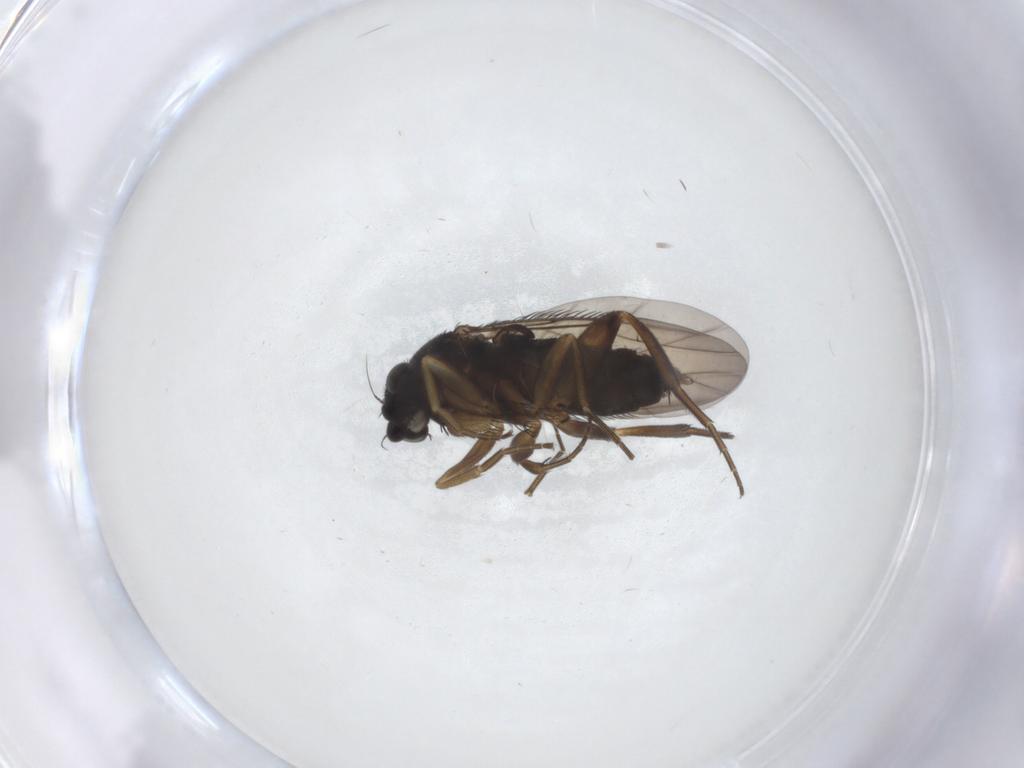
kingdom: Animalia
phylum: Arthropoda
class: Insecta
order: Diptera
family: Phoridae
